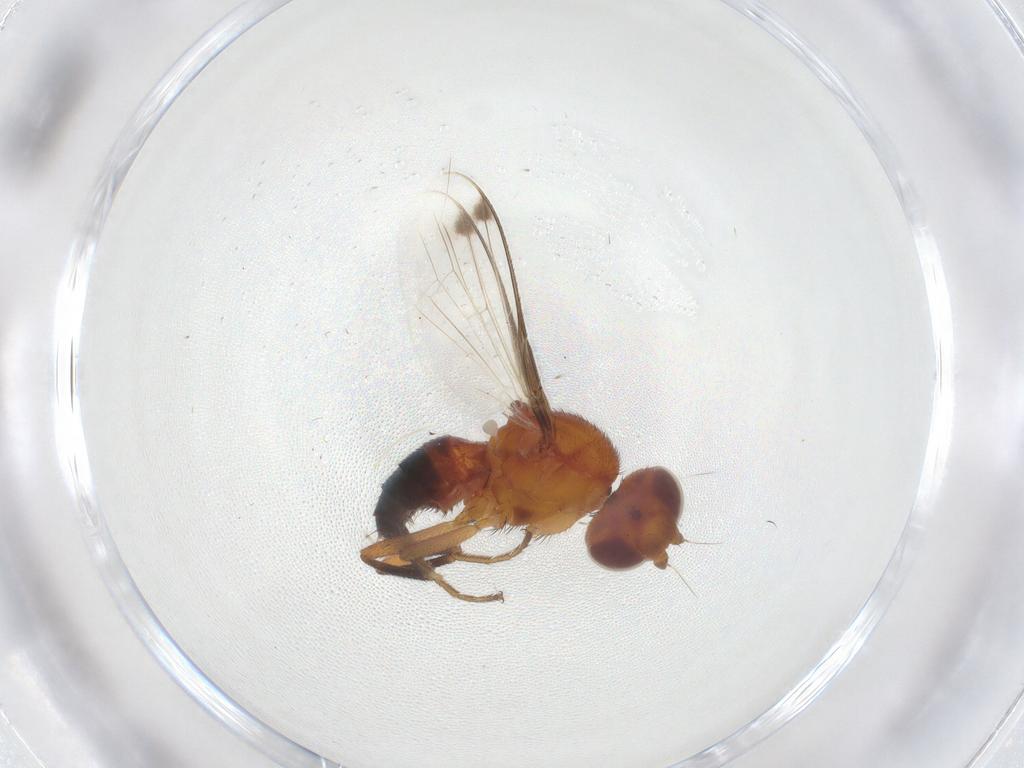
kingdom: Animalia
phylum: Arthropoda
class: Insecta
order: Diptera
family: Richardiidae
